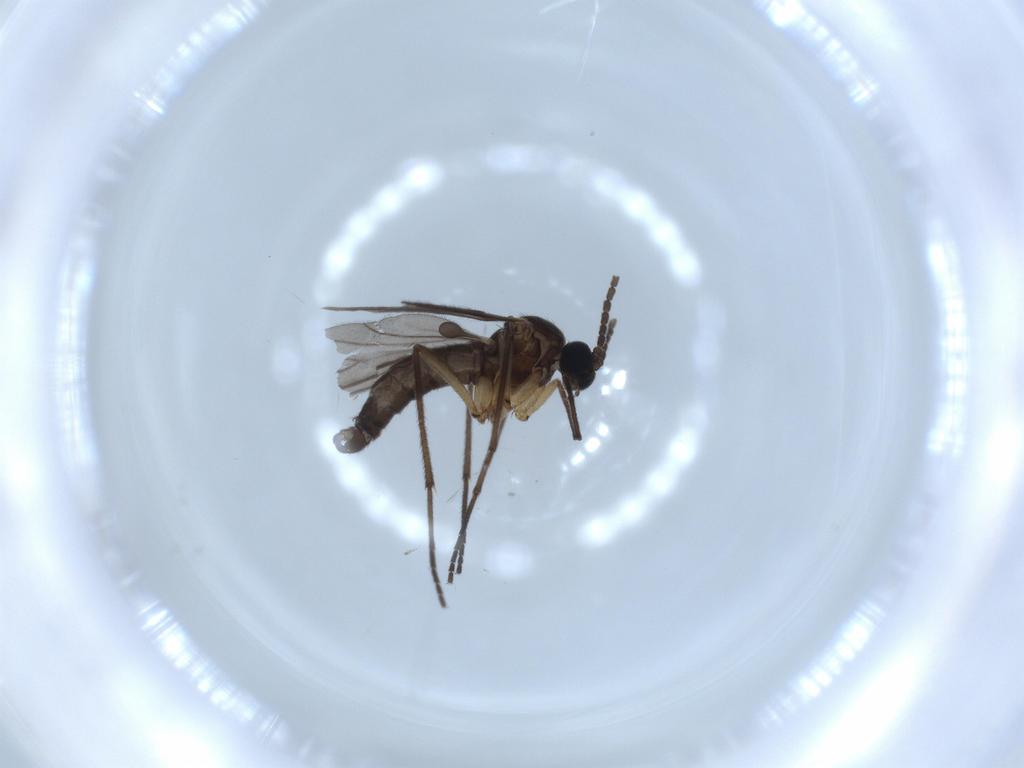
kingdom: Animalia
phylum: Arthropoda
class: Insecta
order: Diptera
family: Sciaridae
